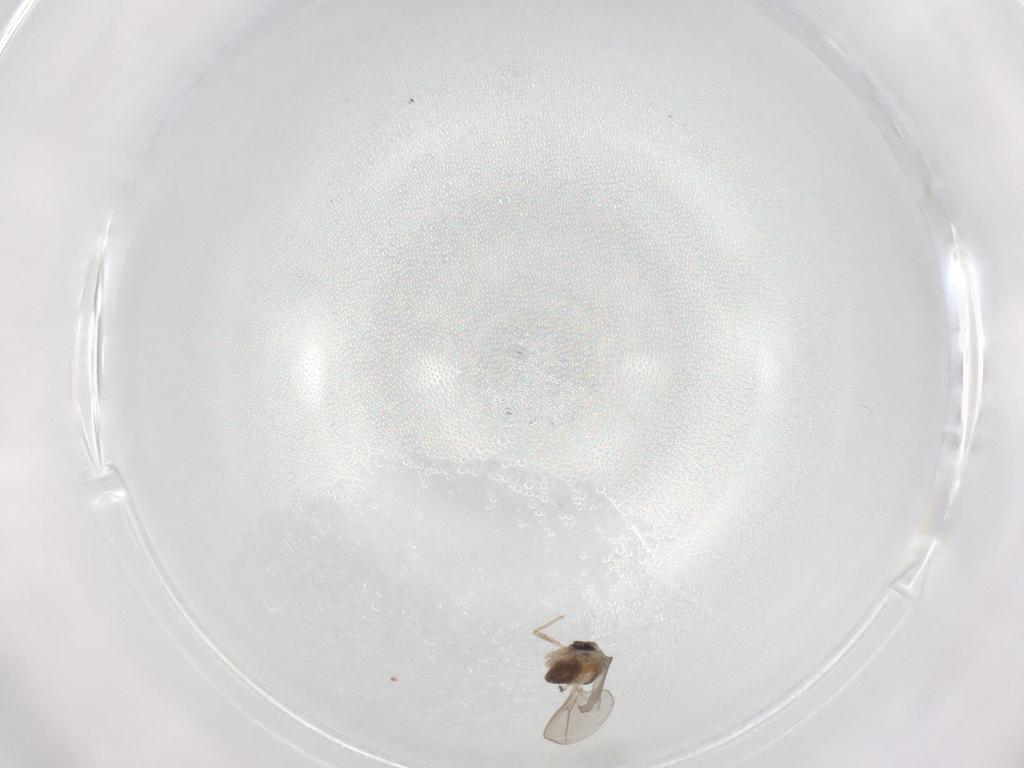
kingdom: Animalia
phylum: Arthropoda
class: Insecta
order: Diptera
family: Cecidomyiidae
